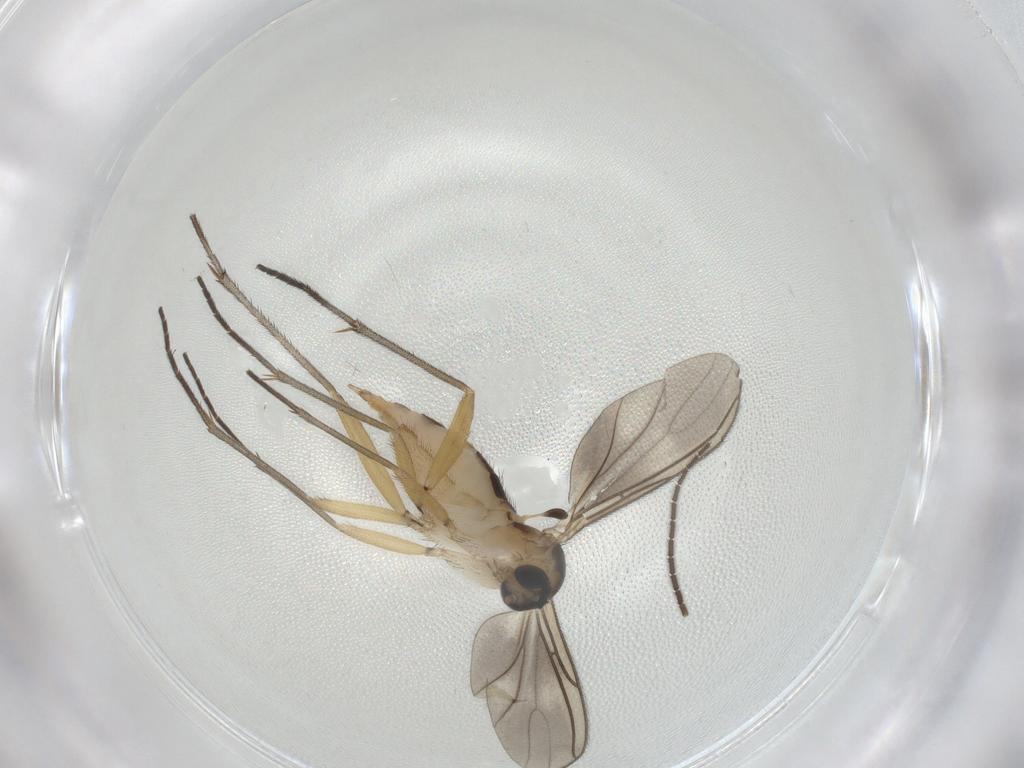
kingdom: Animalia
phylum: Arthropoda
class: Insecta
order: Diptera
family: Sciaridae
